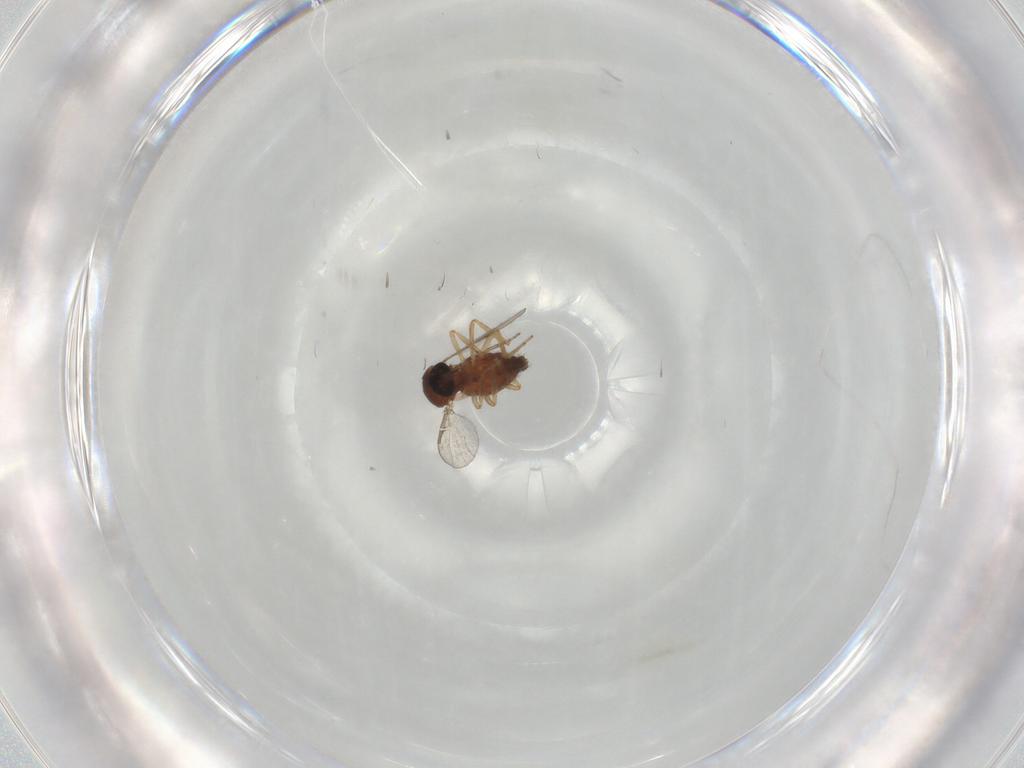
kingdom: Animalia
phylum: Arthropoda
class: Insecta
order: Diptera
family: Ceratopogonidae
